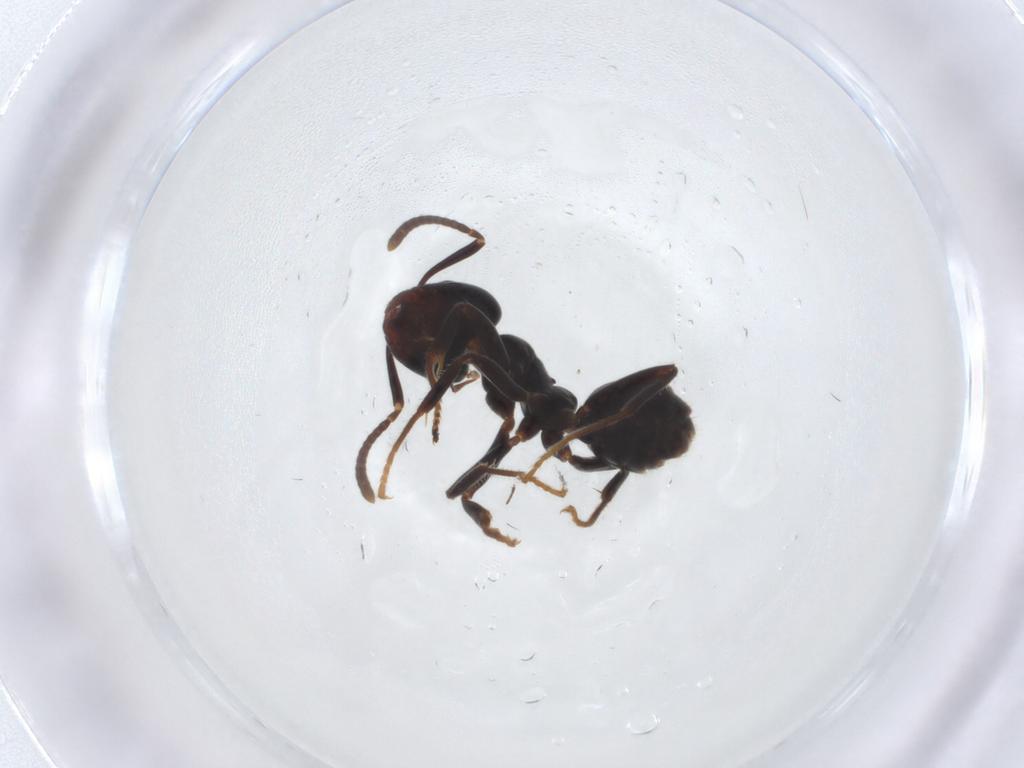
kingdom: Animalia
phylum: Arthropoda
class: Insecta
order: Hymenoptera
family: Formicidae
